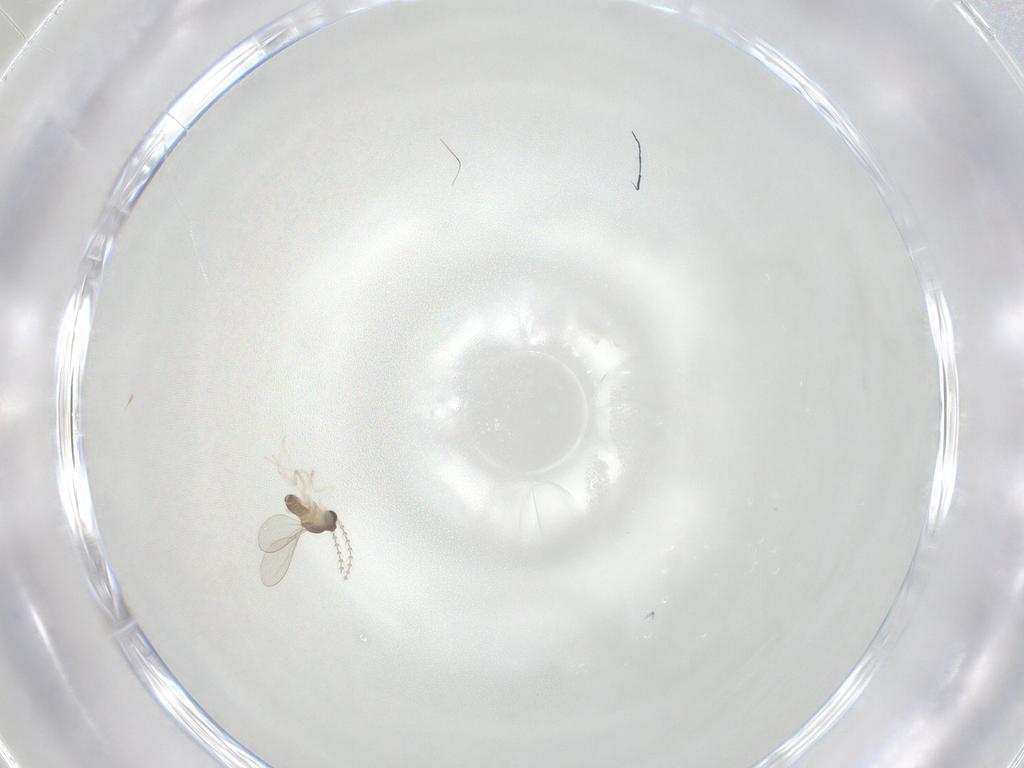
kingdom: Animalia
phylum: Arthropoda
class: Insecta
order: Diptera
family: Cecidomyiidae
